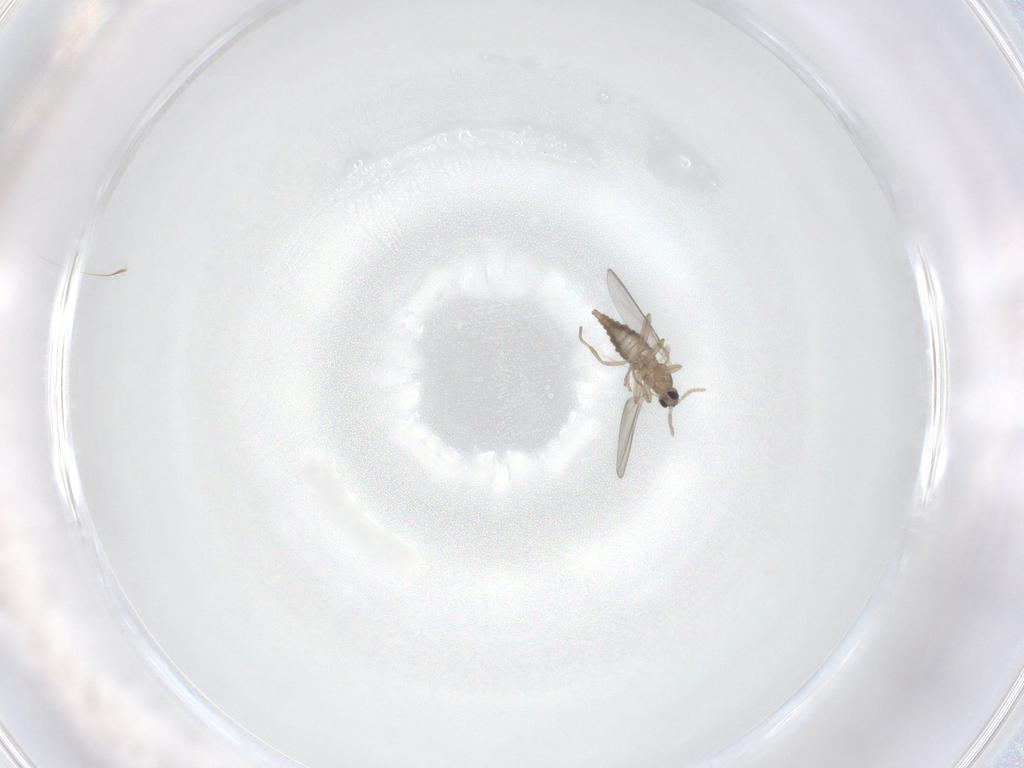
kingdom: Animalia
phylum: Arthropoda
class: Insecta
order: Diptera
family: Cecidomyiidae
